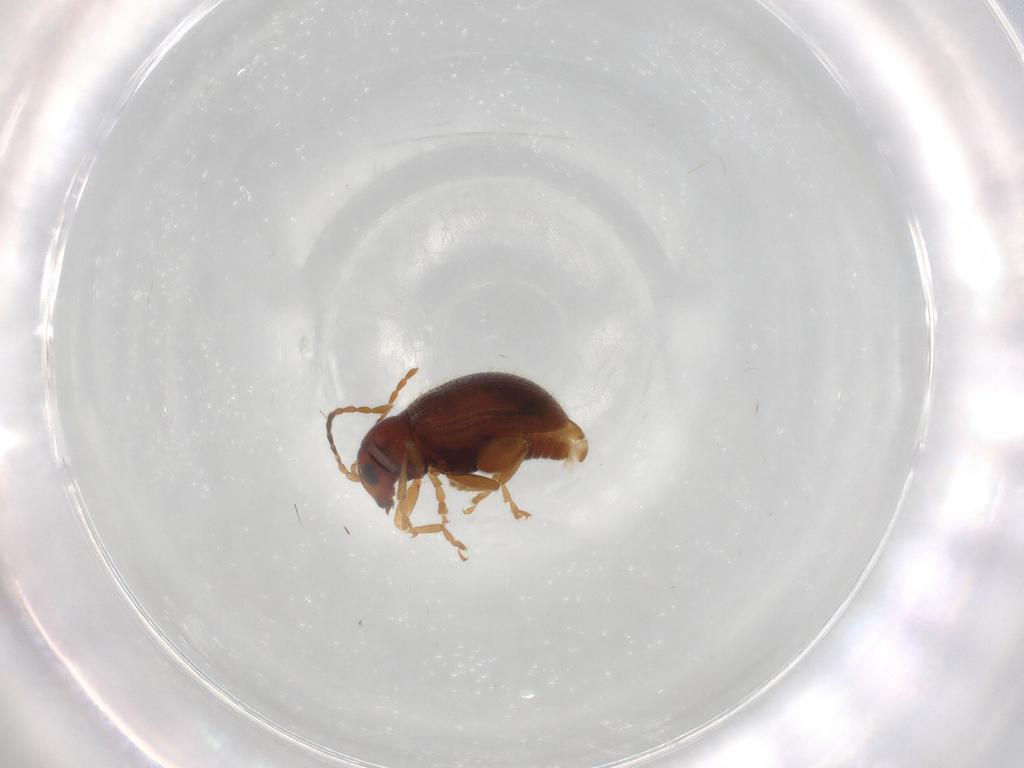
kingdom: Animalia
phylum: Arthropoda
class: Insecta
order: Coleoptera
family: Chrysomelidae
